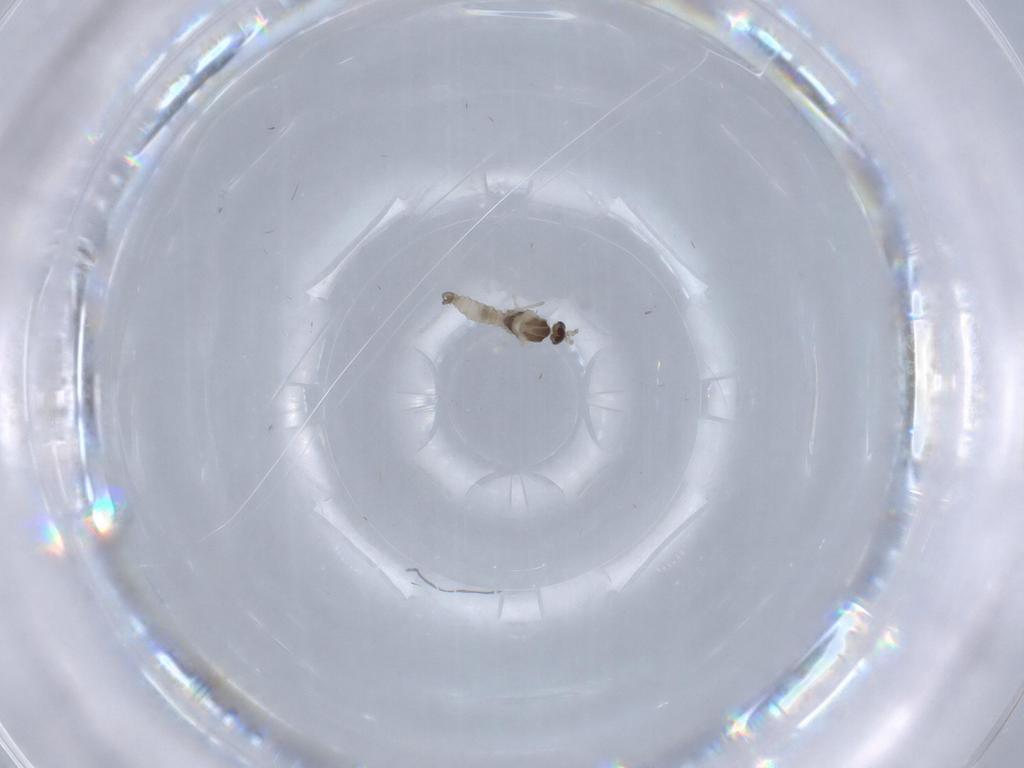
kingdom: Animalia
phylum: Arthropoda
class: Insecta
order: Diptera
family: Cecidomyiidae
